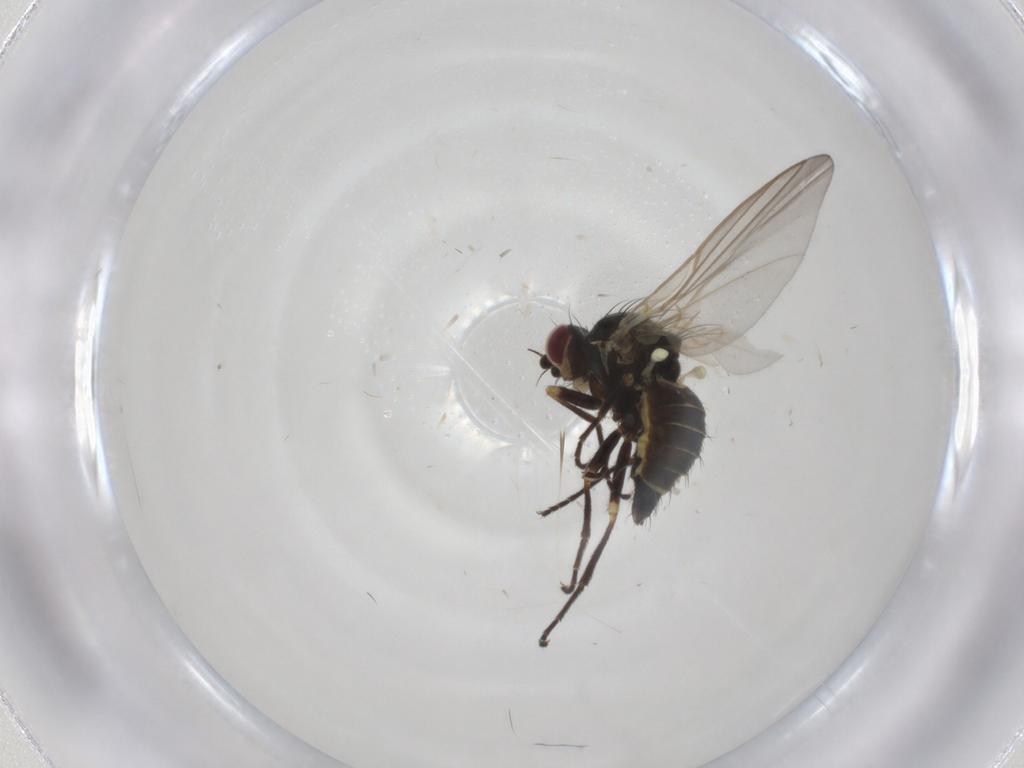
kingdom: Animalia
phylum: Arthropoda
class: Insecta
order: Diptera
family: Agromyzidae
